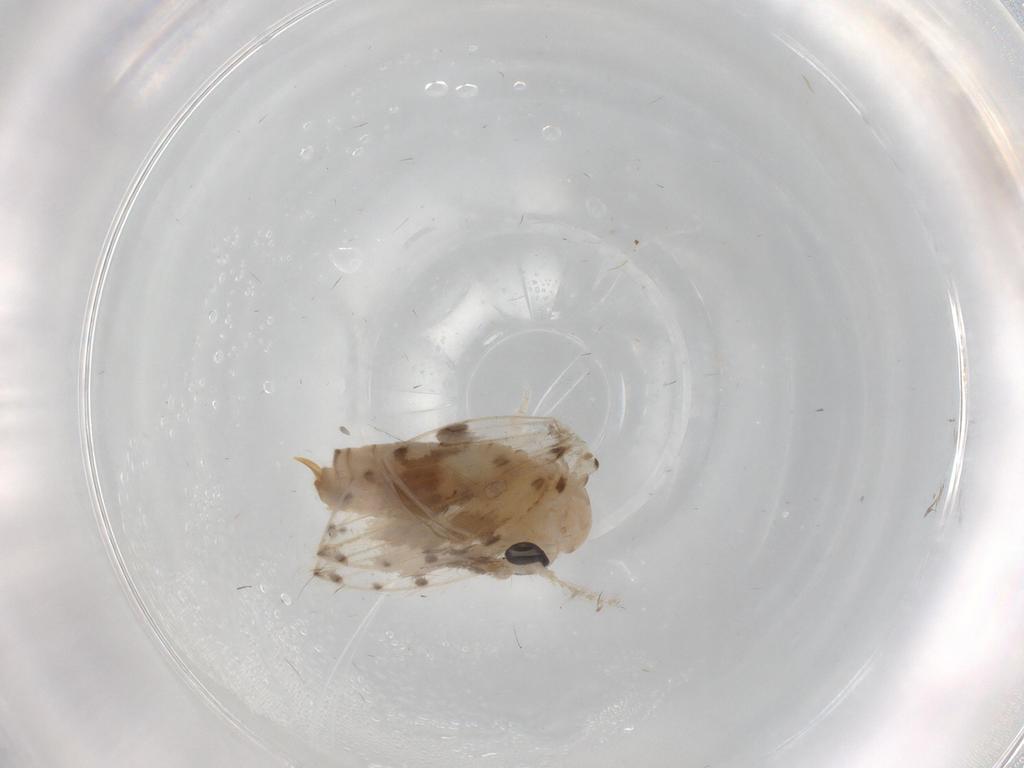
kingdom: Animalia
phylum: Arthropoda
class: Insecta
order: Diptera
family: Psychodidae
